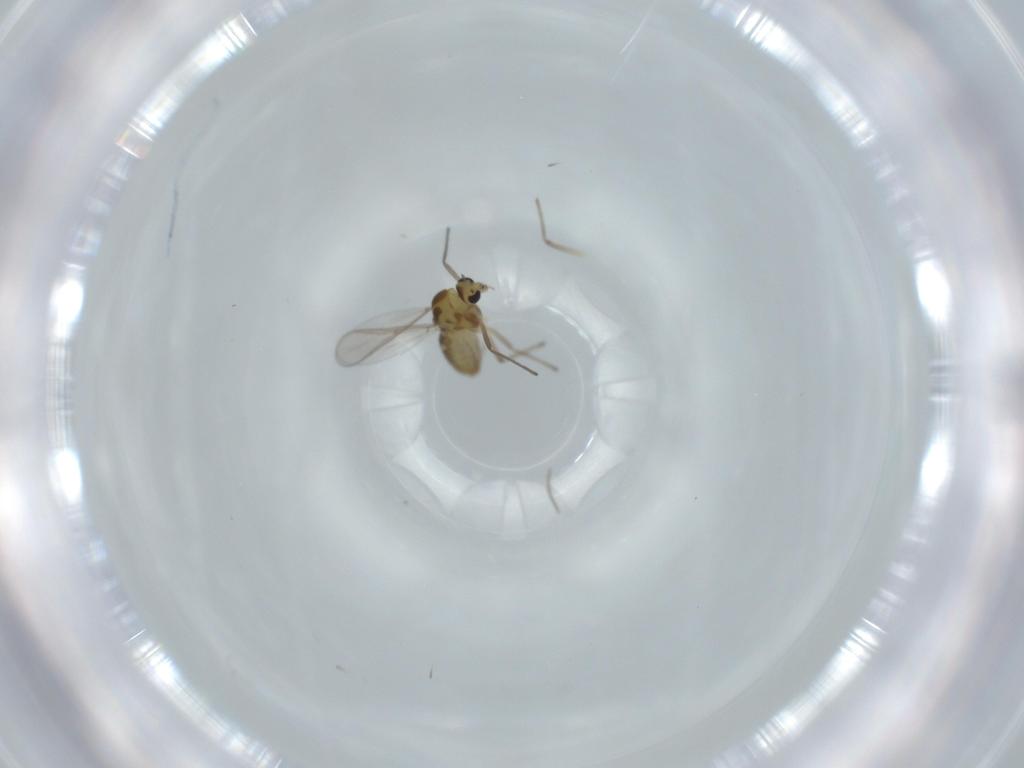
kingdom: Animalia
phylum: Arthropoda
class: Insecta
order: Diptera
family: Chironomidae
